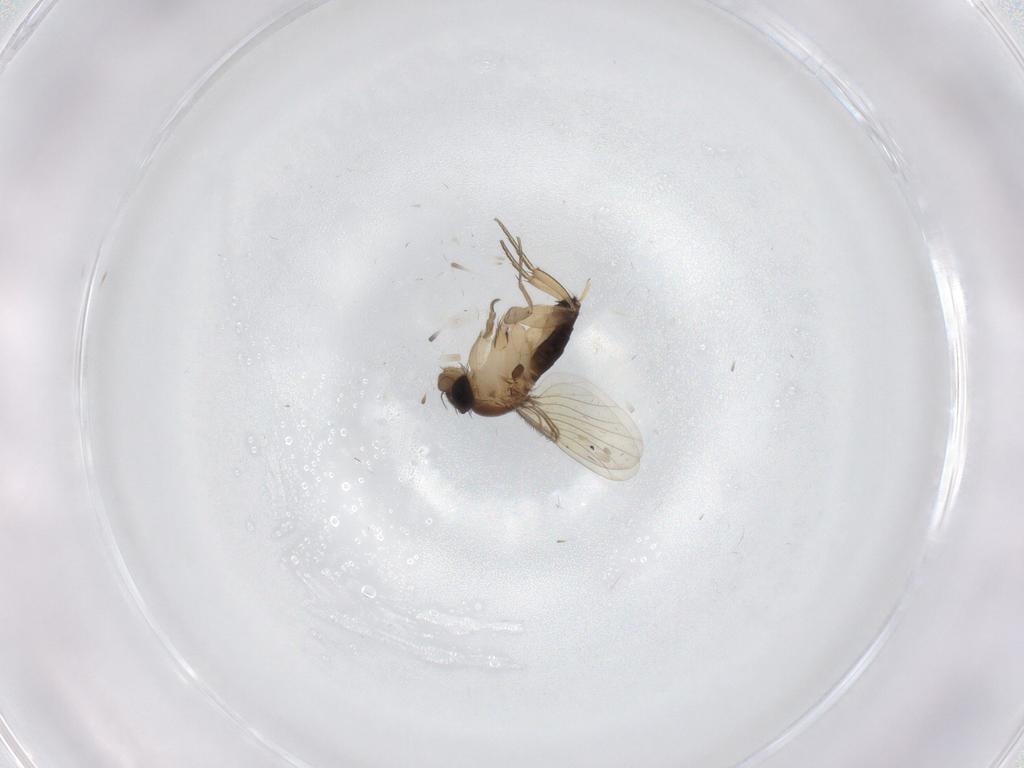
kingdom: Animalia
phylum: Arthropoda
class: Insecta
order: Diptera
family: Phoridae
